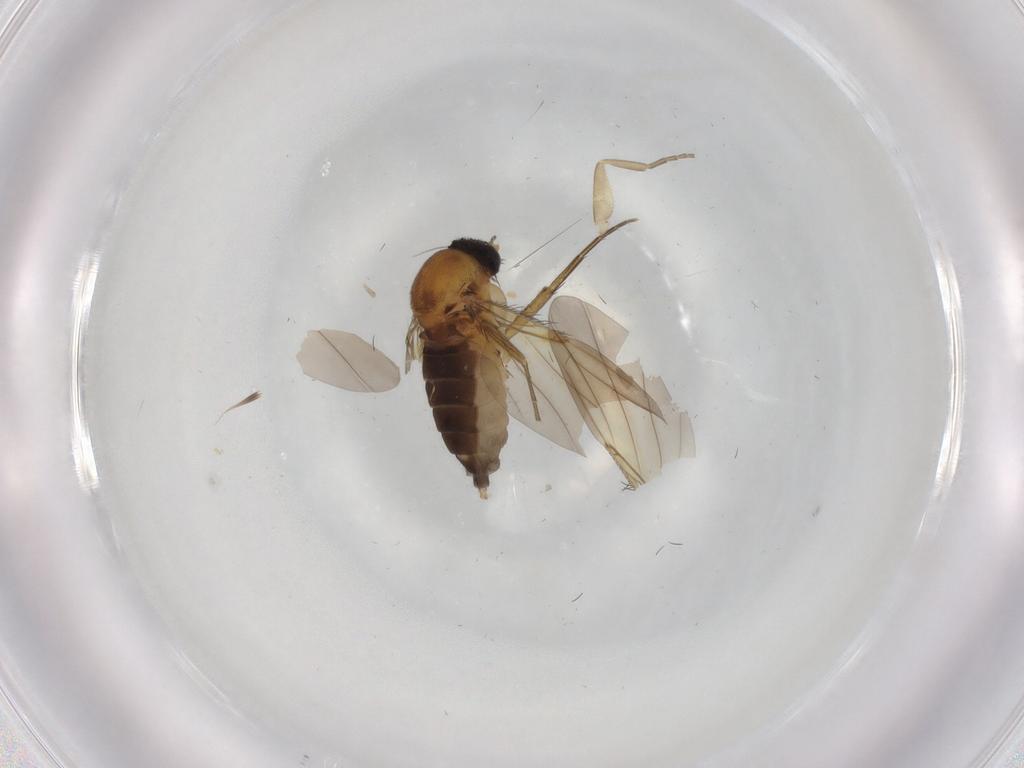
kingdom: Animalia
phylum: Arthropoda
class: Insecta
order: Diptera
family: Phoridae
